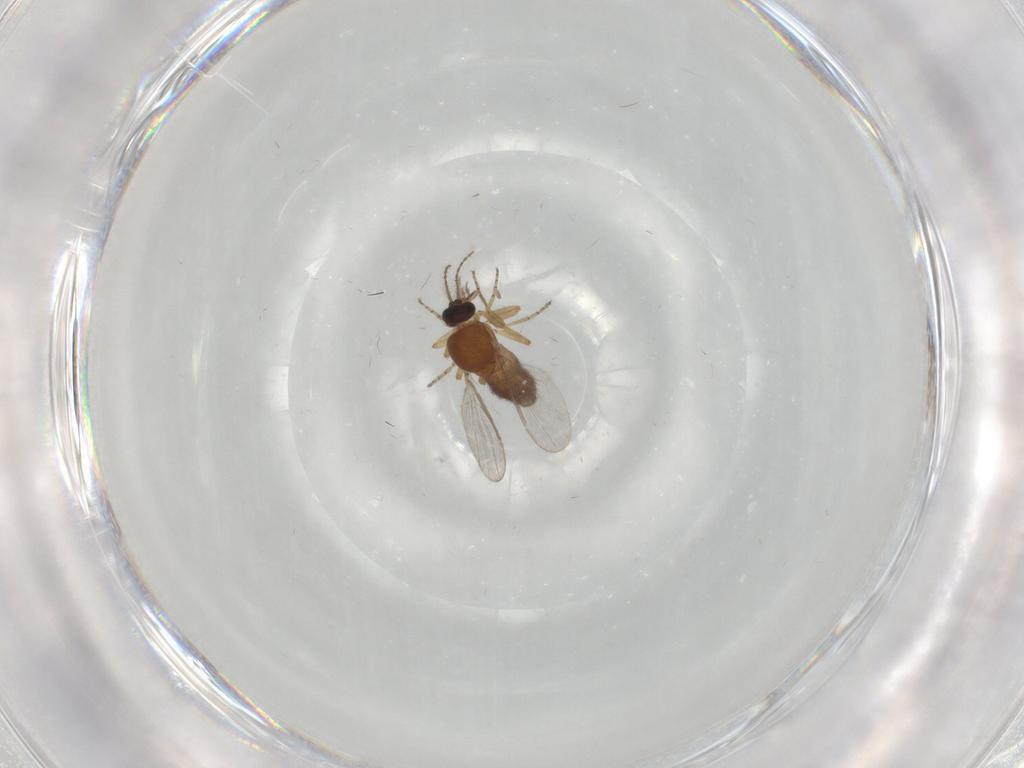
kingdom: Animalia
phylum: Arthropoda
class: Insecta
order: Diptera
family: Ceratopogonidae
